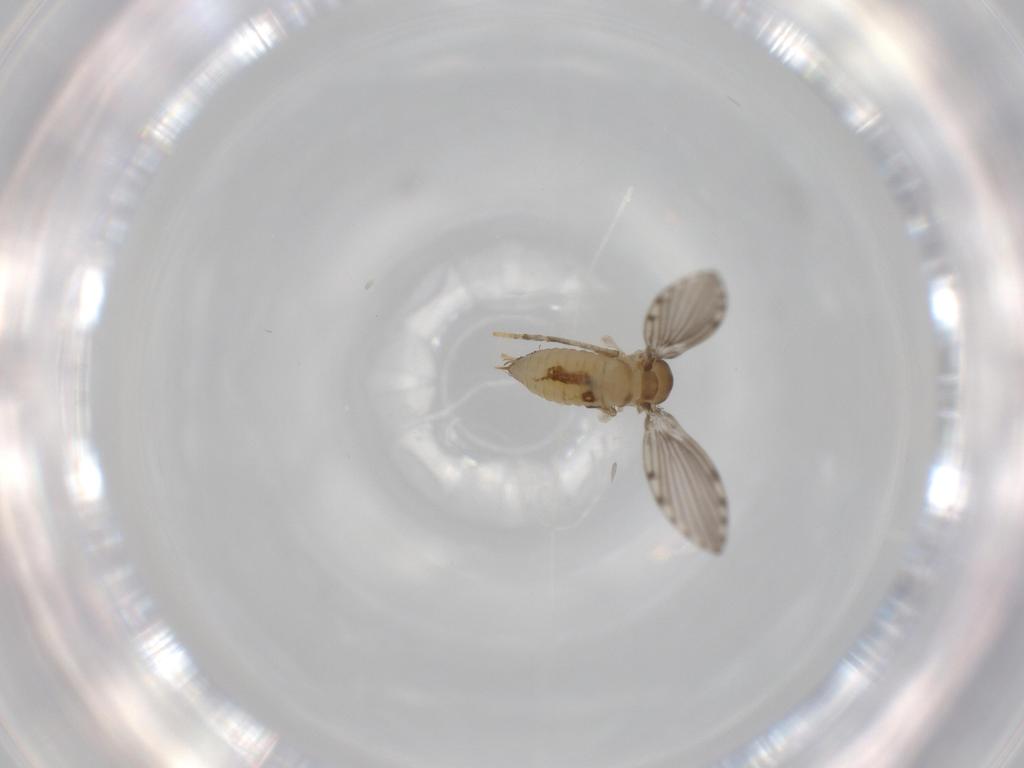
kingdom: Animalia
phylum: Arthropoda
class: Insecta
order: Diptera
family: Psychodidae
